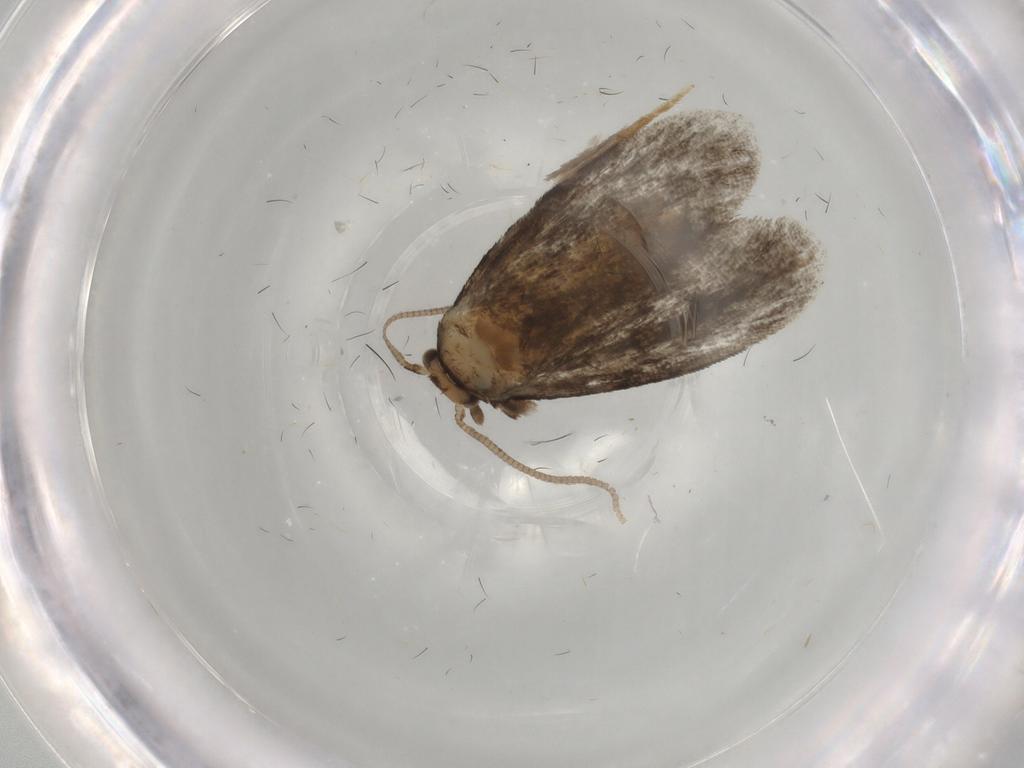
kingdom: Animalia
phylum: Arthropoda
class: Insecta
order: Lepidoptera
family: Dryadaulidae
